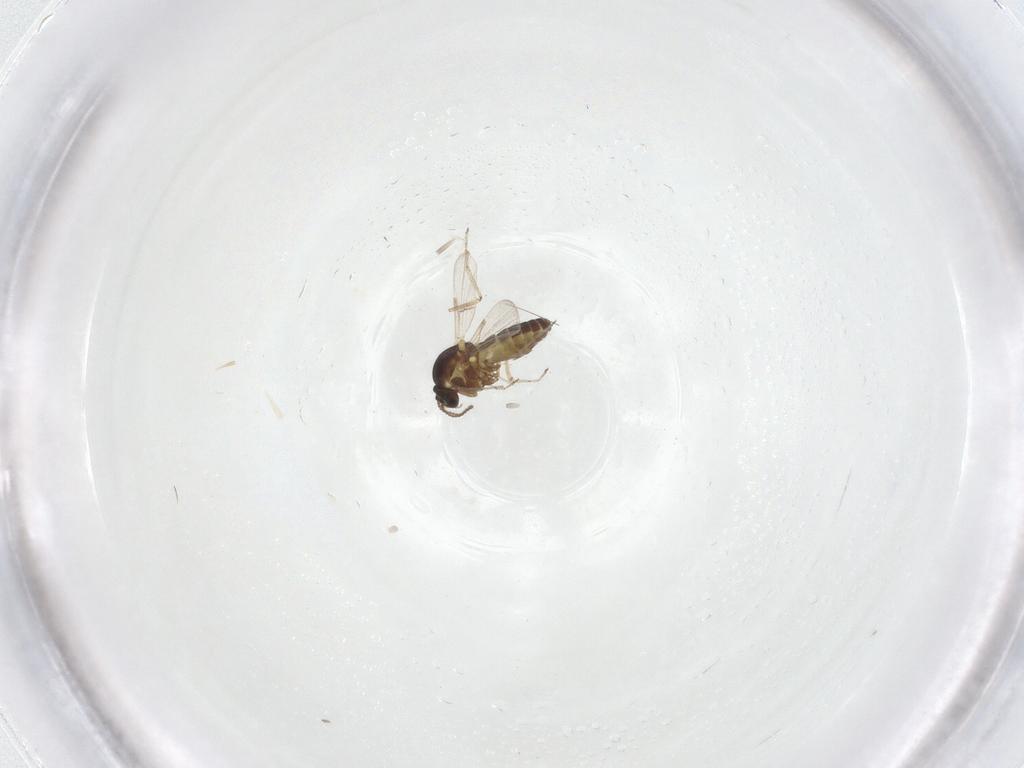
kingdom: Animalia
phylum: Arthropoda
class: Insecta
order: Diptera
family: Ceratopogonidae
